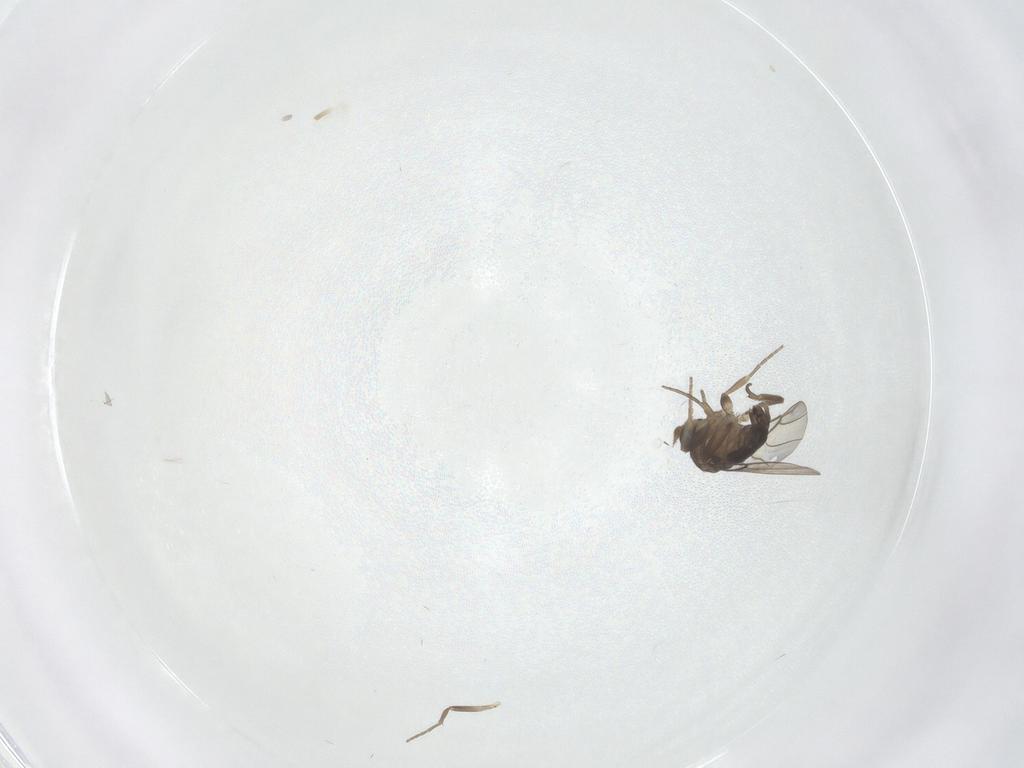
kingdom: Animalia
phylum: Arthropoda
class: Insecta
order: Diptera
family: Phoridae
